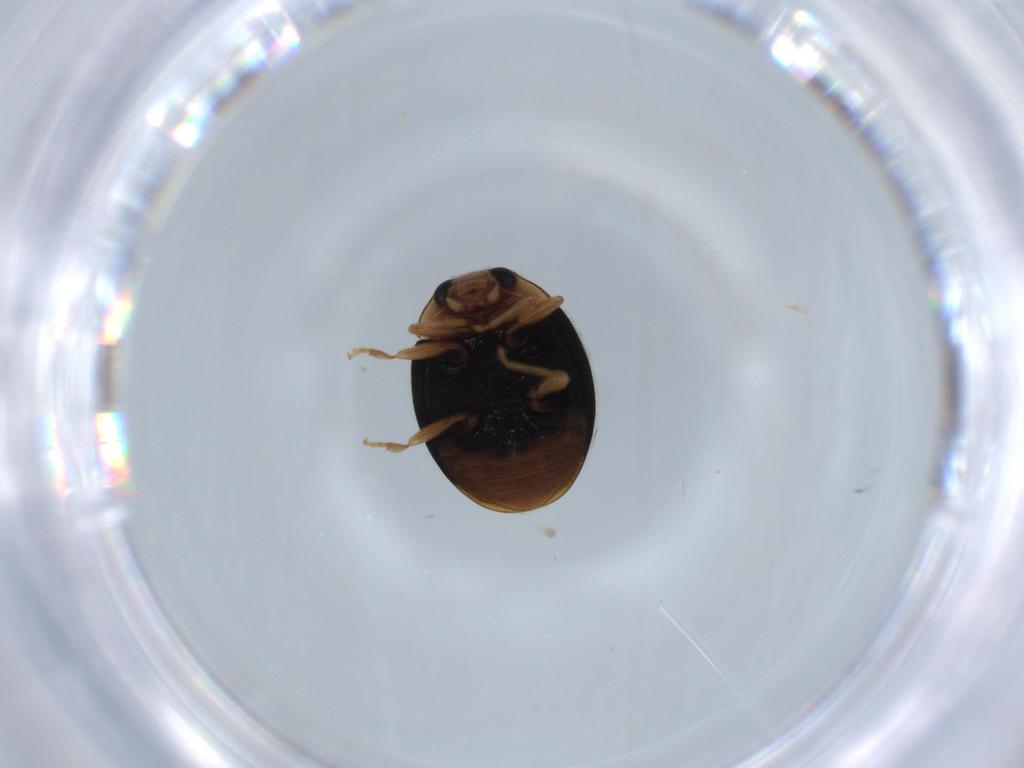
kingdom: Animalia
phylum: Arthropoda
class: Insecta
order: Coleoptera
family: Coccinellidae
